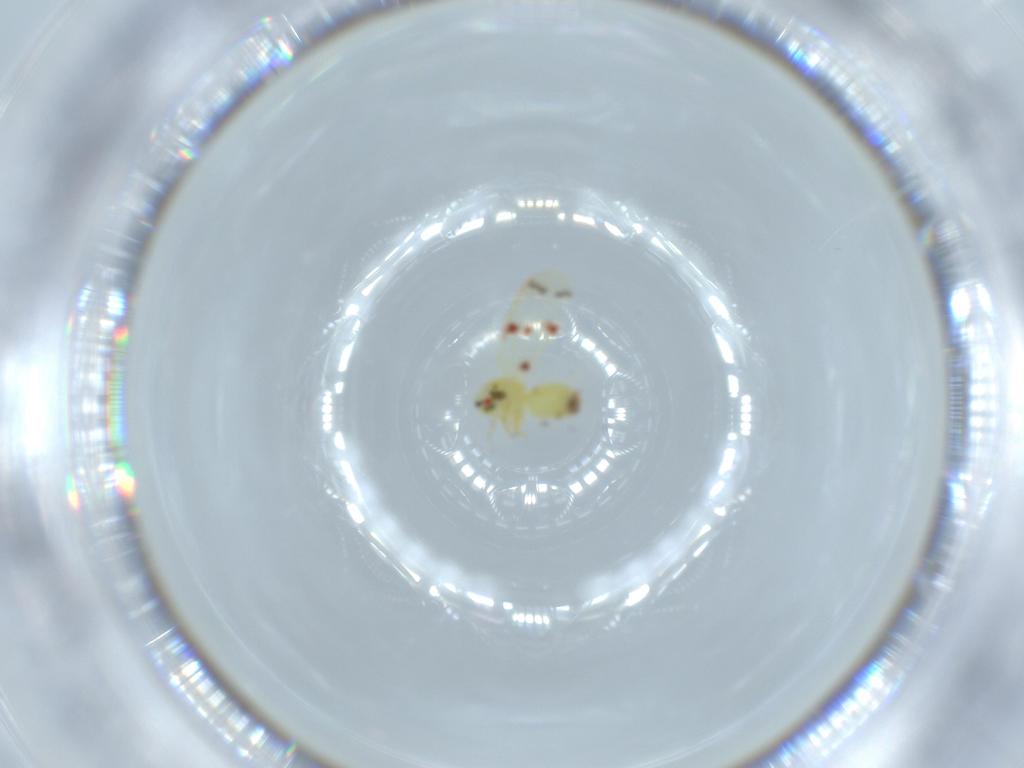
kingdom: Animalia
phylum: Arthropoda
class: Insecta
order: Hemiptera
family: Aleyrodidae
